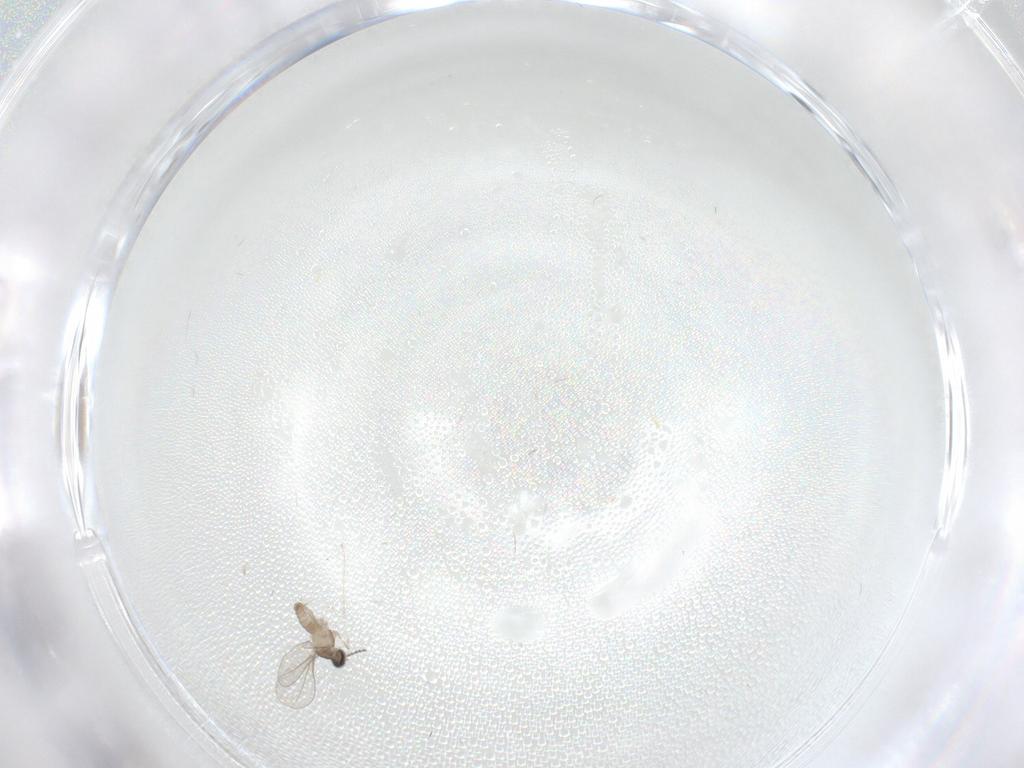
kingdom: Animalia
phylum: Arthropoda
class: Insecta
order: Diptera
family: Cecidomyiidae
